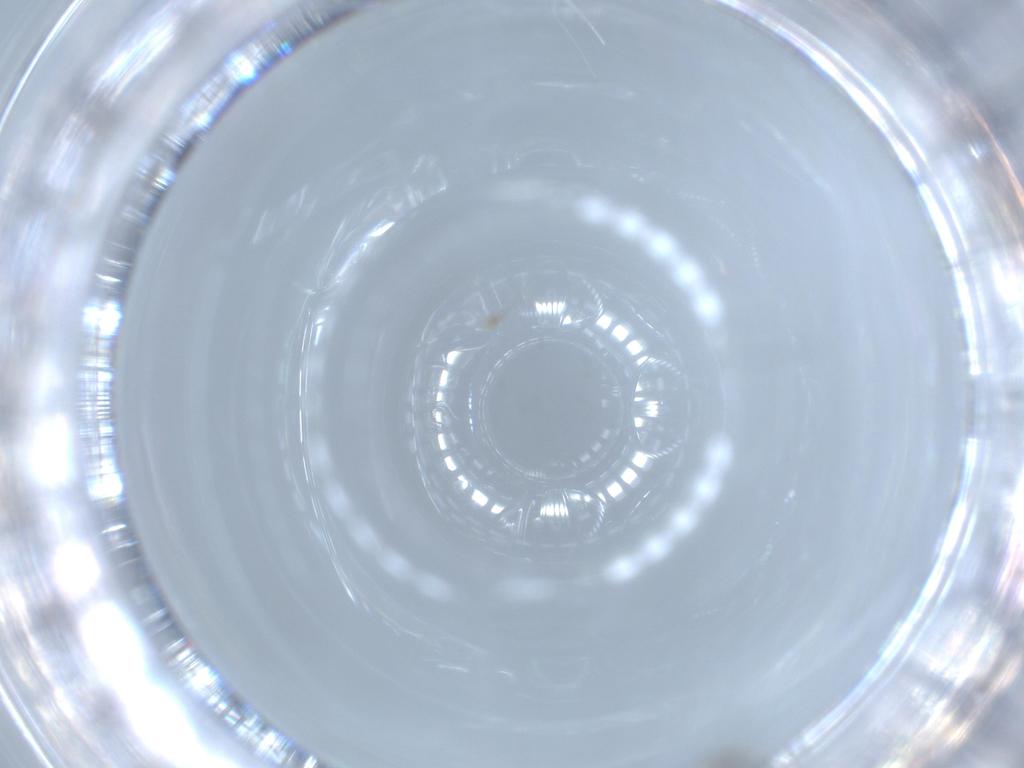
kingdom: Animalia
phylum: Arthropoda
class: Insecta
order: Blattodea
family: Ectobiidae
